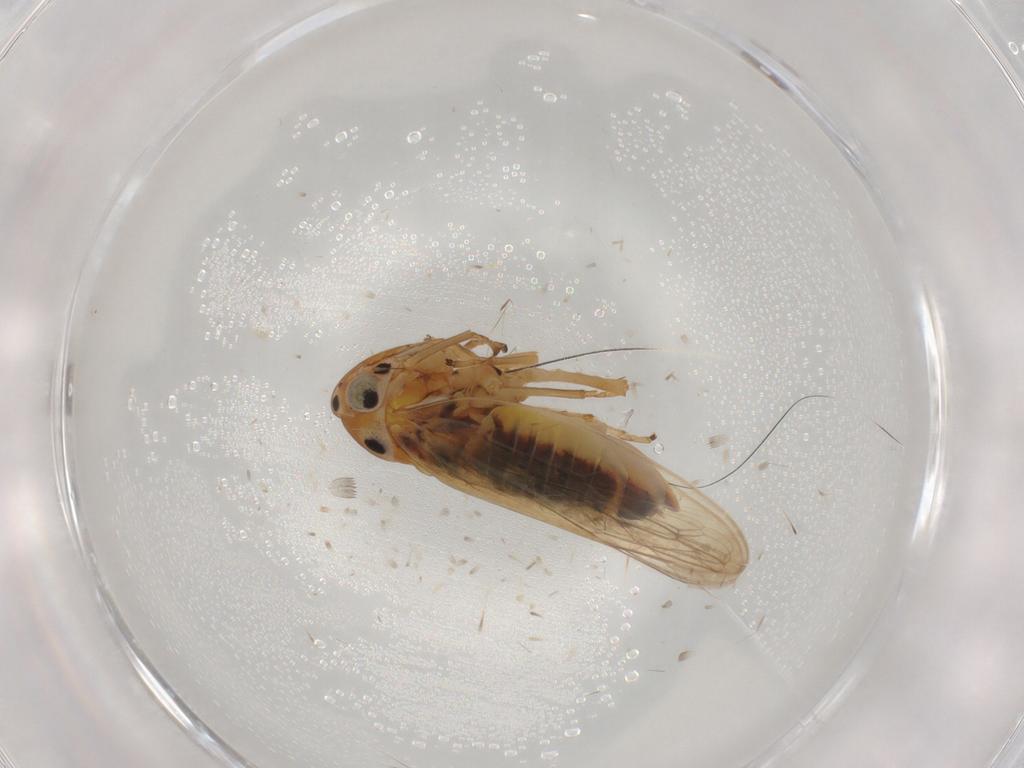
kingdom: Animalia
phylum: Arthropoda
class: Insecta
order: Hemiptera
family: Cicadellidae
